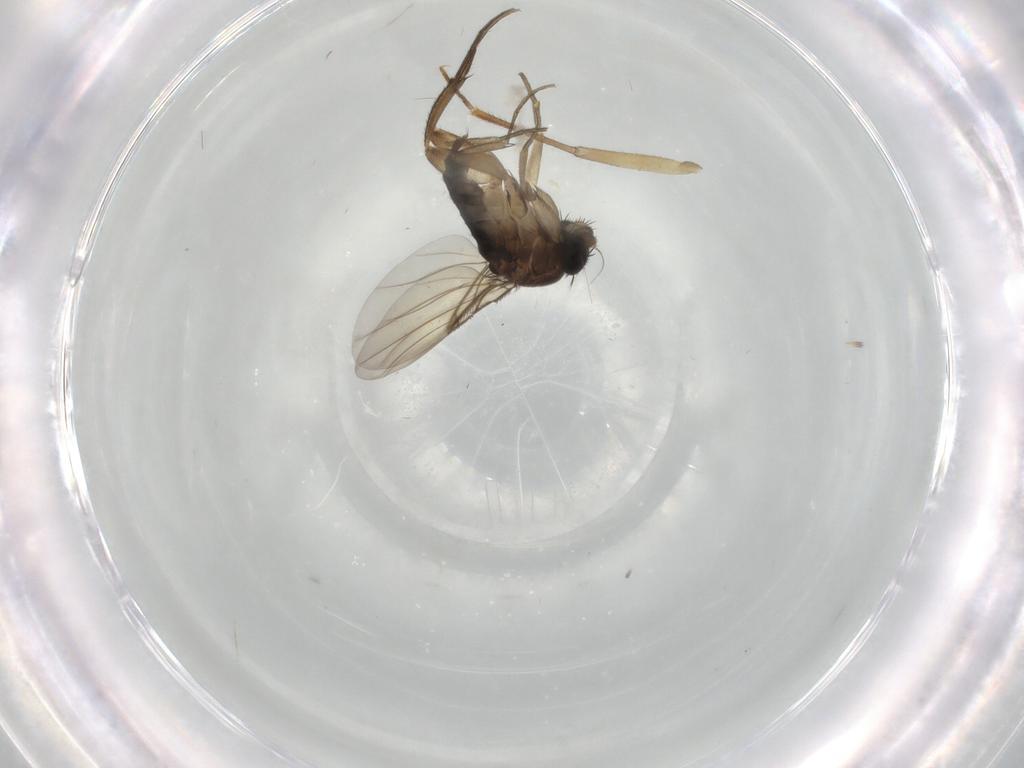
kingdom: Animalia
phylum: Arthropoda
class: Insecta
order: Diptera
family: Phoridae
